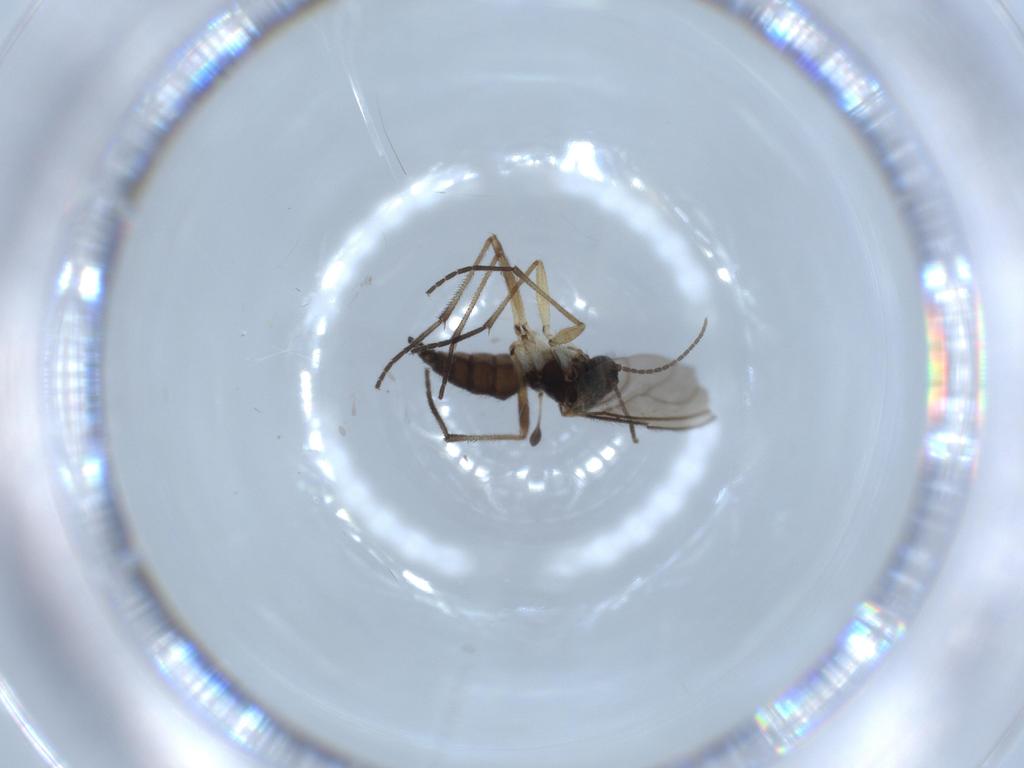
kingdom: Animalia
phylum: Arthropoda
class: Insecta
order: Diptera
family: Sciaridae
